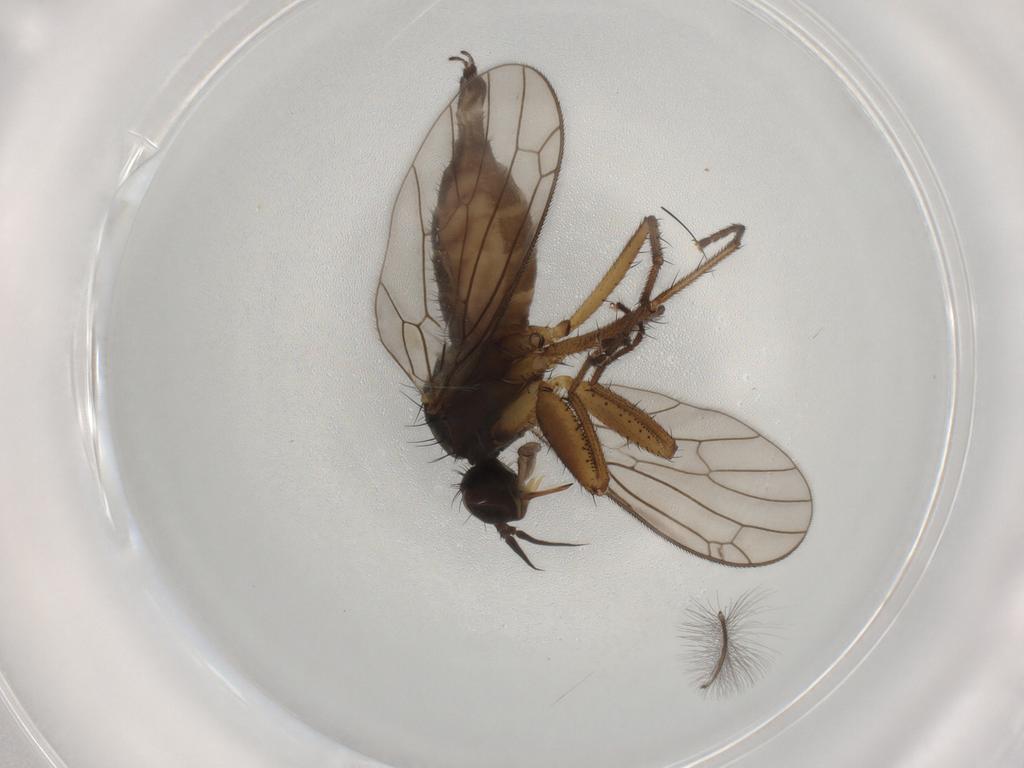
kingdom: Animalia
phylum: Arthropoda
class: Insecta
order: Diptera
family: Empididae
